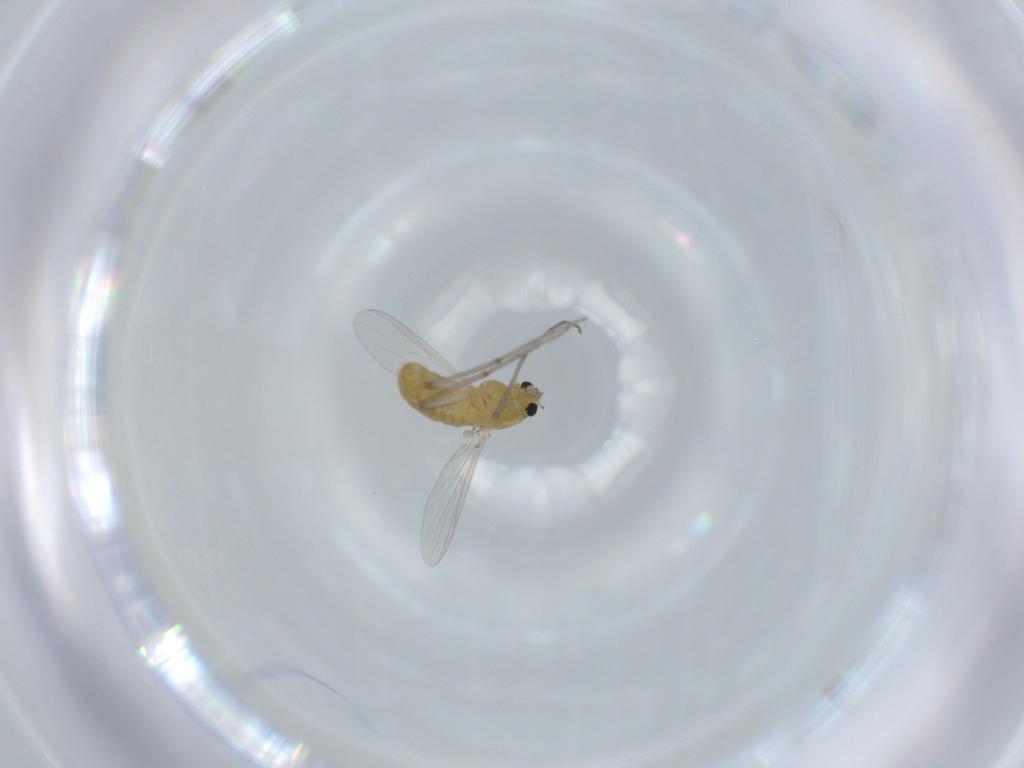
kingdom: Animalia
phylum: Arthropoda
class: Insecta
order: Diptera
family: Chironomidae
